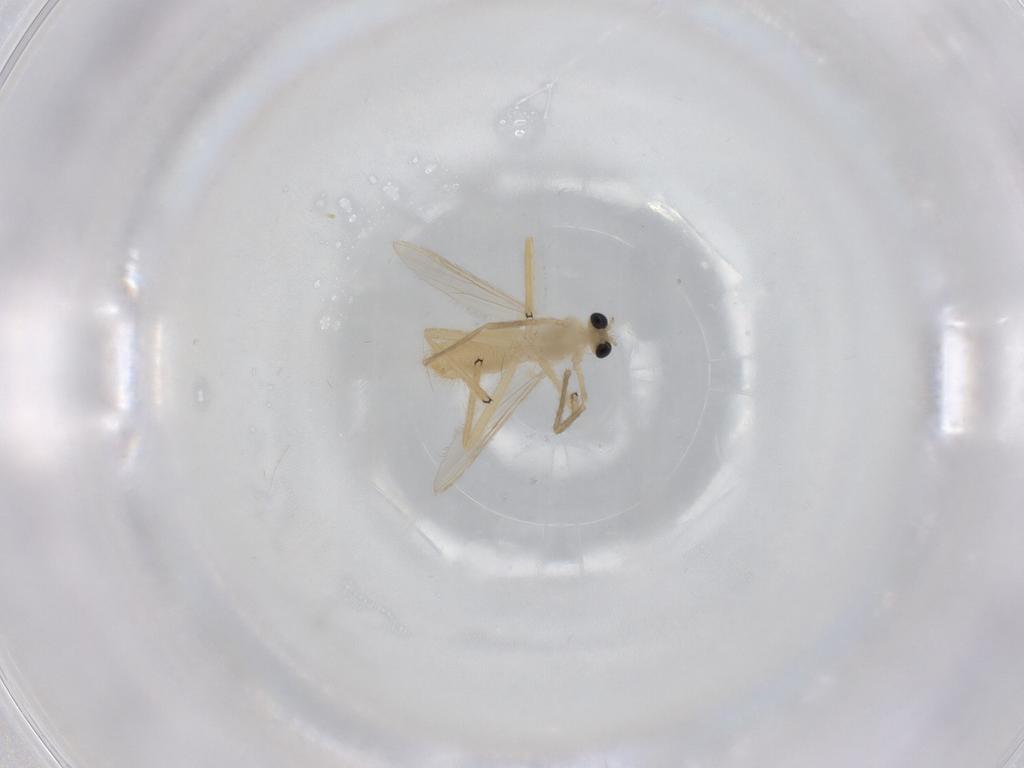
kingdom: Animalia
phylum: Arthropoda
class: Insecta
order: Diptera
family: Chironomidae
